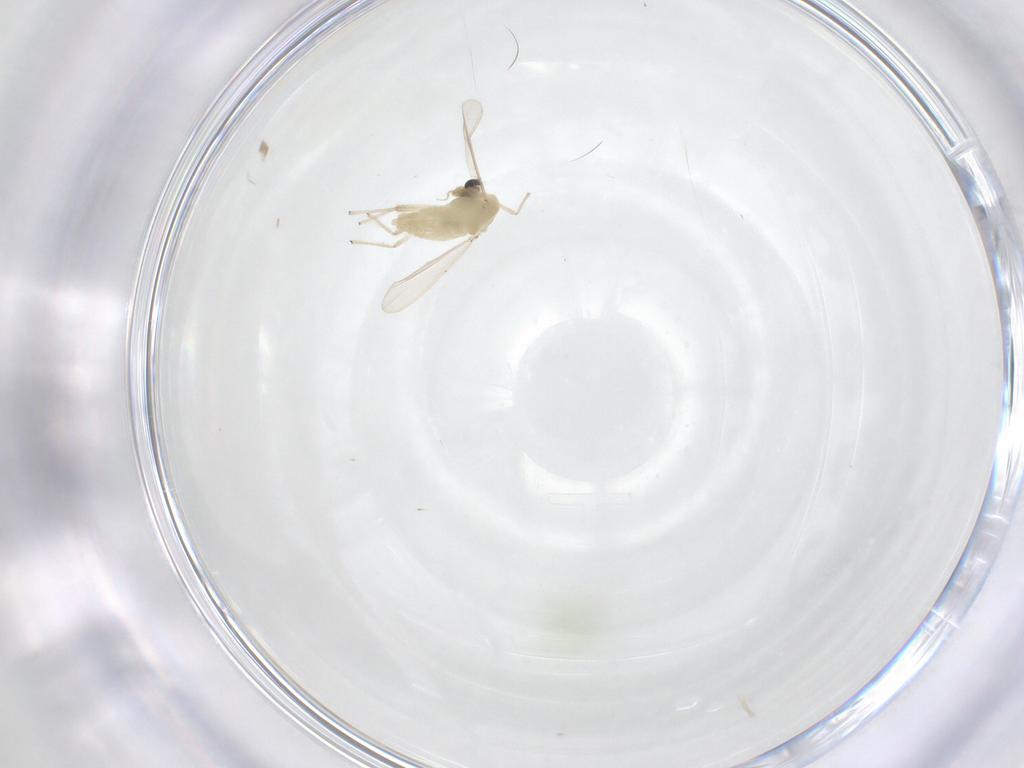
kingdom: Animalia
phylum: Arthropoda
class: Insecta
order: Diptera
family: Chironomidae
